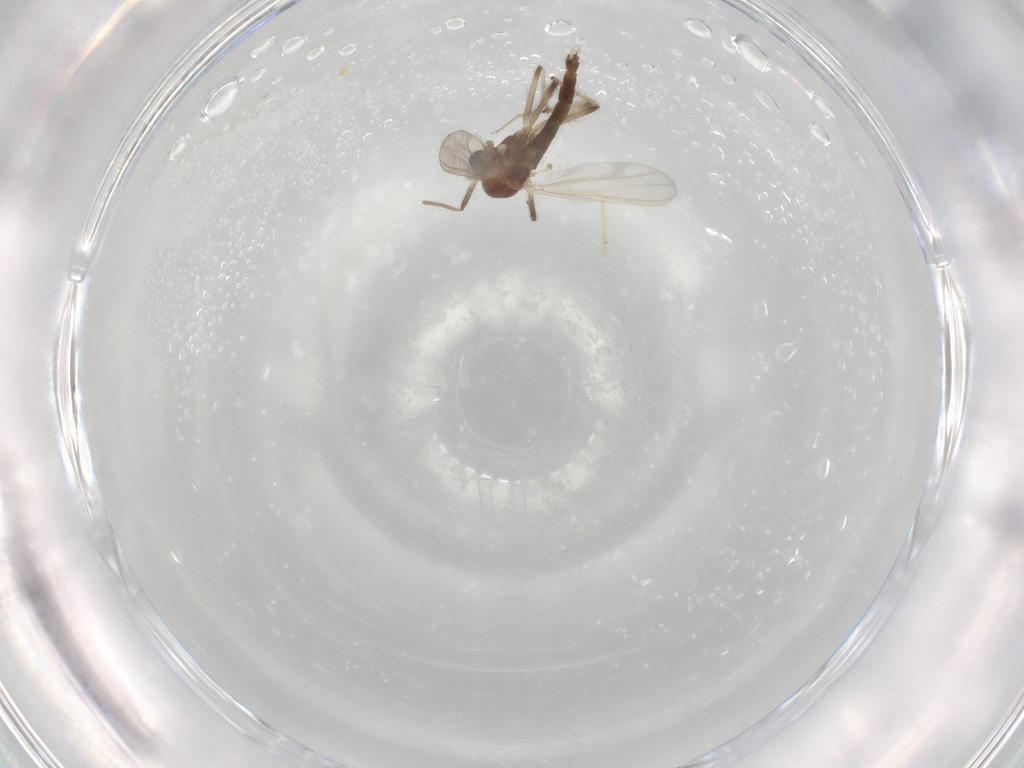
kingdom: Animalia
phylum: Arthropoda
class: Insecta
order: Diptera
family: Chironomidae
